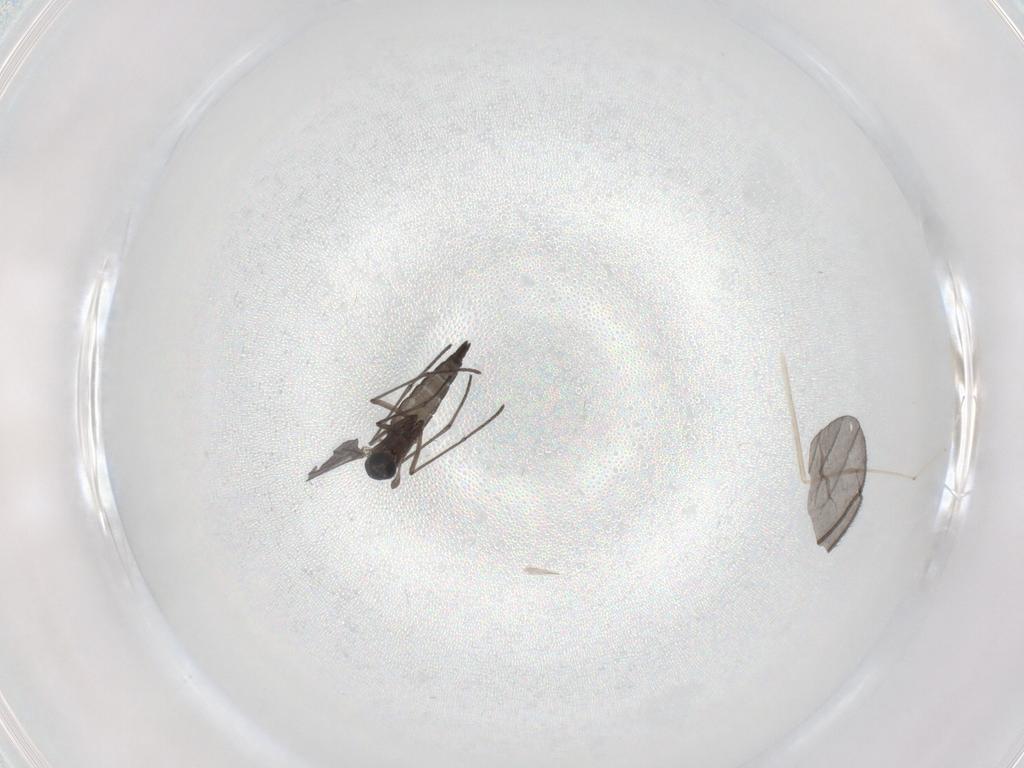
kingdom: Animalia
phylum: Arthropoda
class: Insecta
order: Diptera
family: Cecidomyiidae
